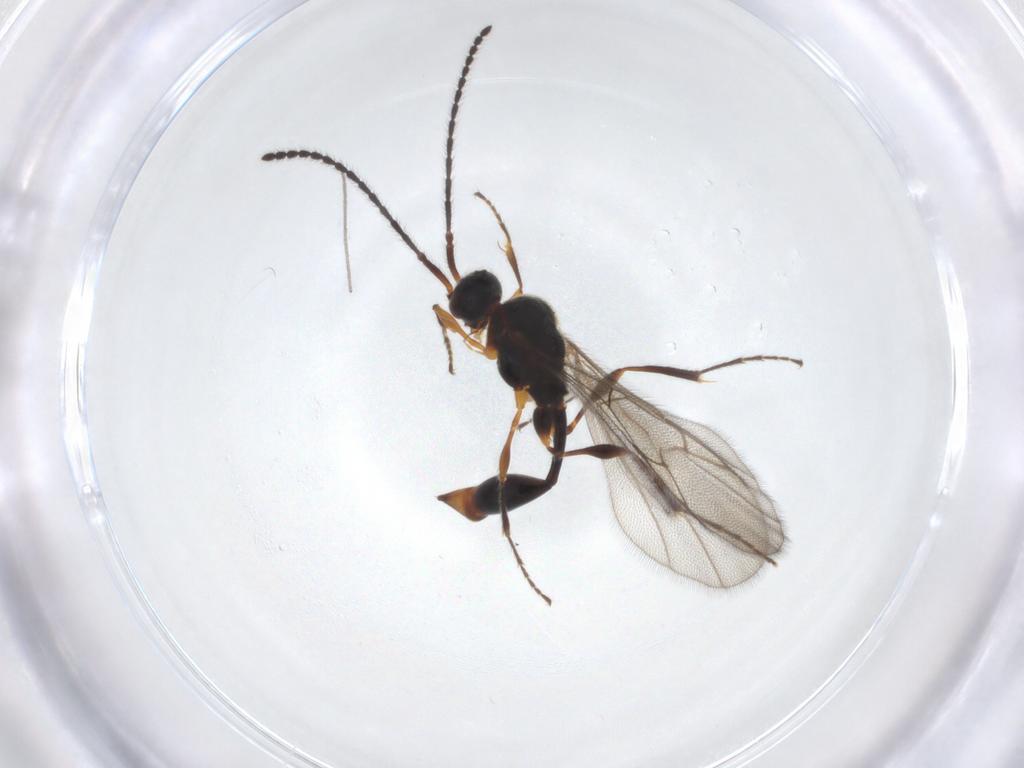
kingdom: Animalia
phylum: Arthropoda
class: Insecta
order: Hymenoptera
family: Diapriidae
